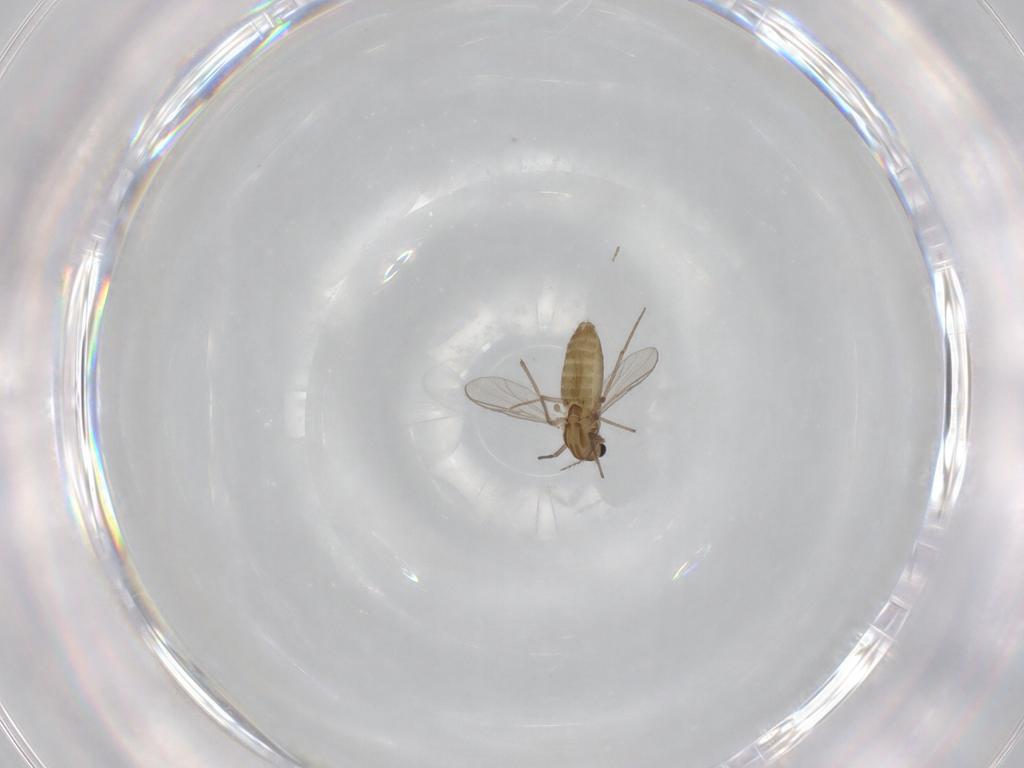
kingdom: Animalia
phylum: Arthropoda
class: Insecta
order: Diptera
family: Chironomidae
